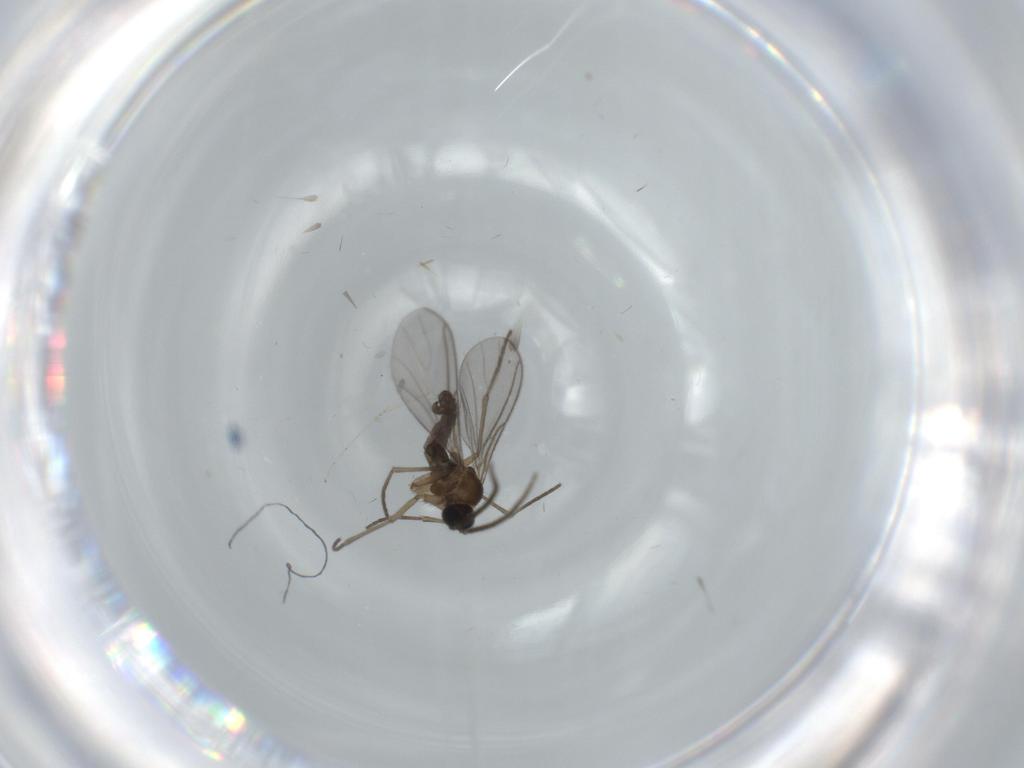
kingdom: Animalia
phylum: Arthropoda
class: Insecta
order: Diptera
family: Sciaridae
